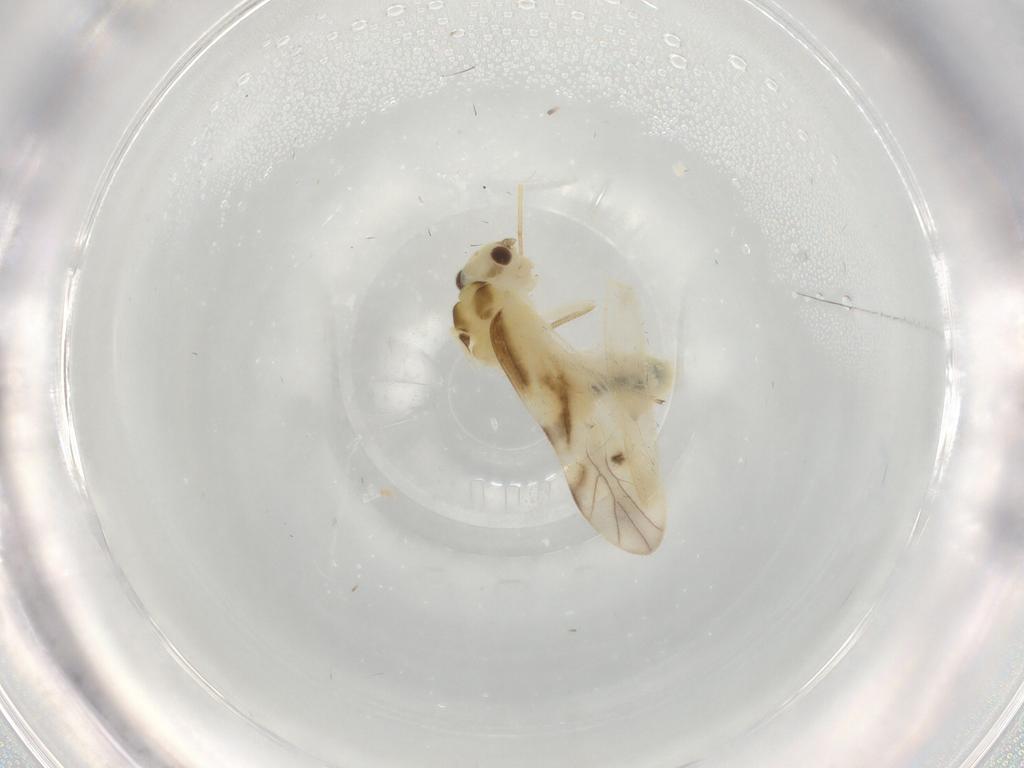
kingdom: Animalia
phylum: Arthropoda
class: Insecta
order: Psocodea
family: Caeciliusidae
